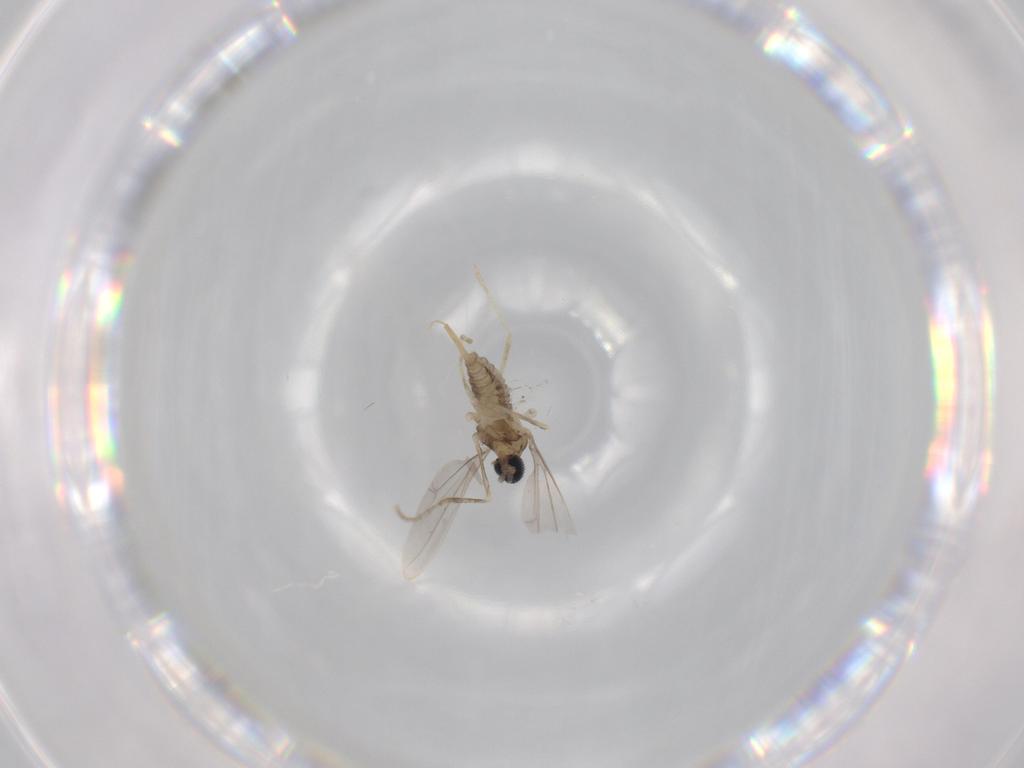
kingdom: Animalia
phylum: Arthropoda
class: Insecta
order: Diptera
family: Cecidomyiidae
